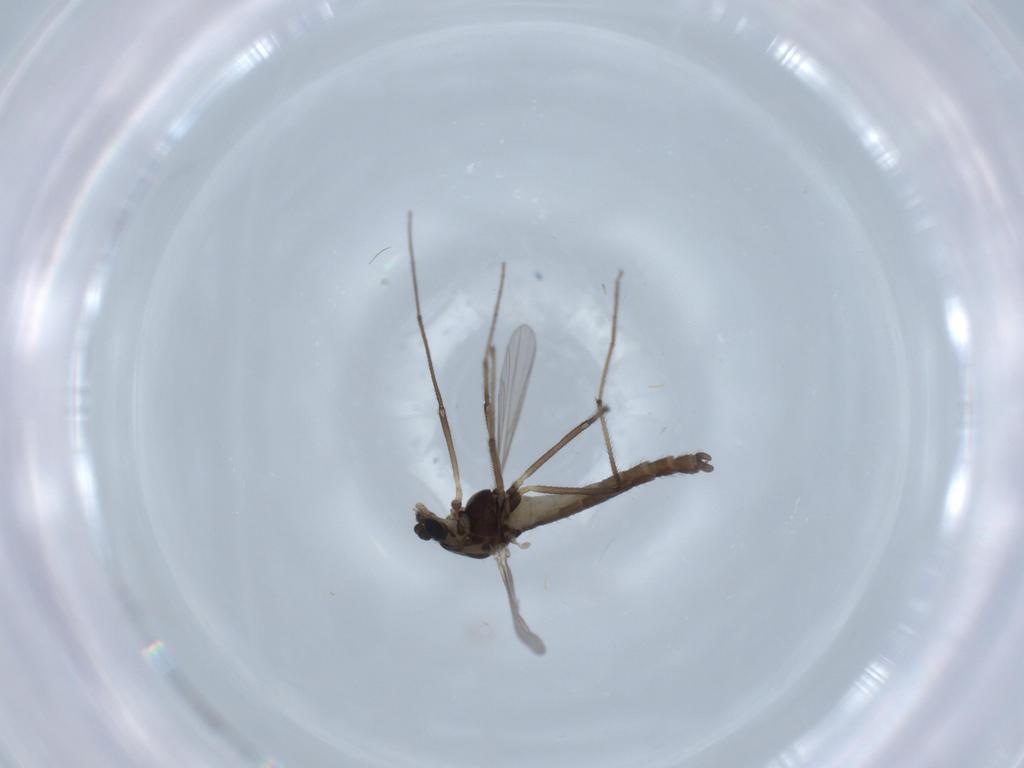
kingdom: Animalia
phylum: Arthropoda
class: Insecta
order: Diptera
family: Chironomidae
